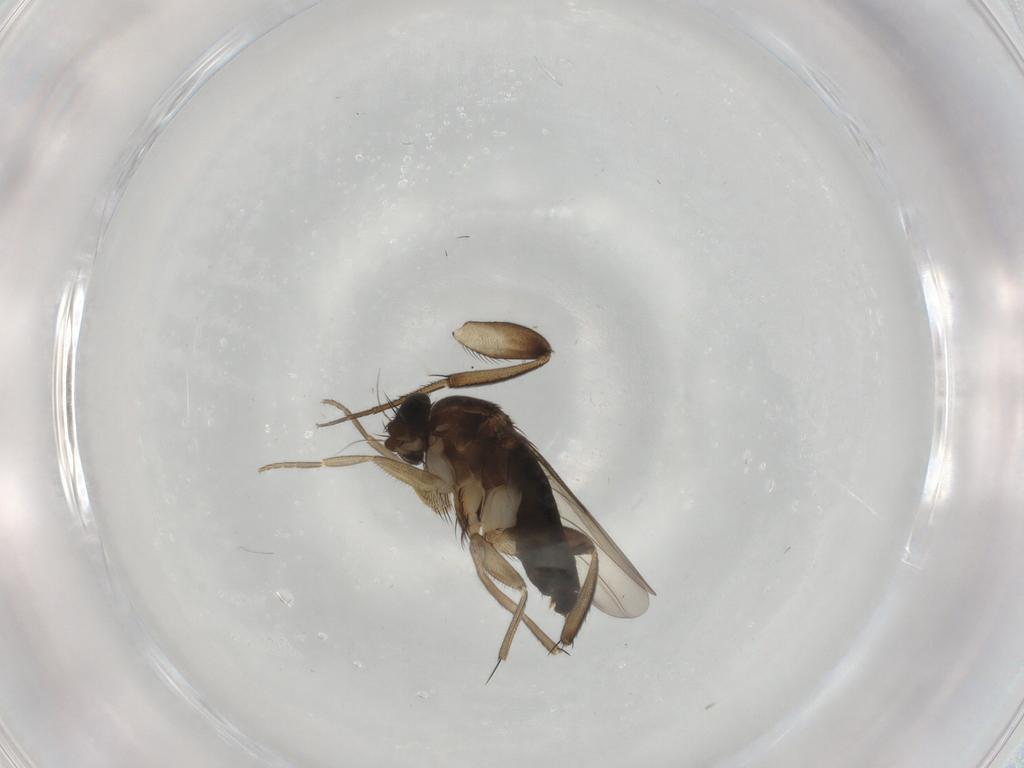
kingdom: Animalia
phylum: Arthropoda
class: Insecta
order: Diptera
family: Phoridae
